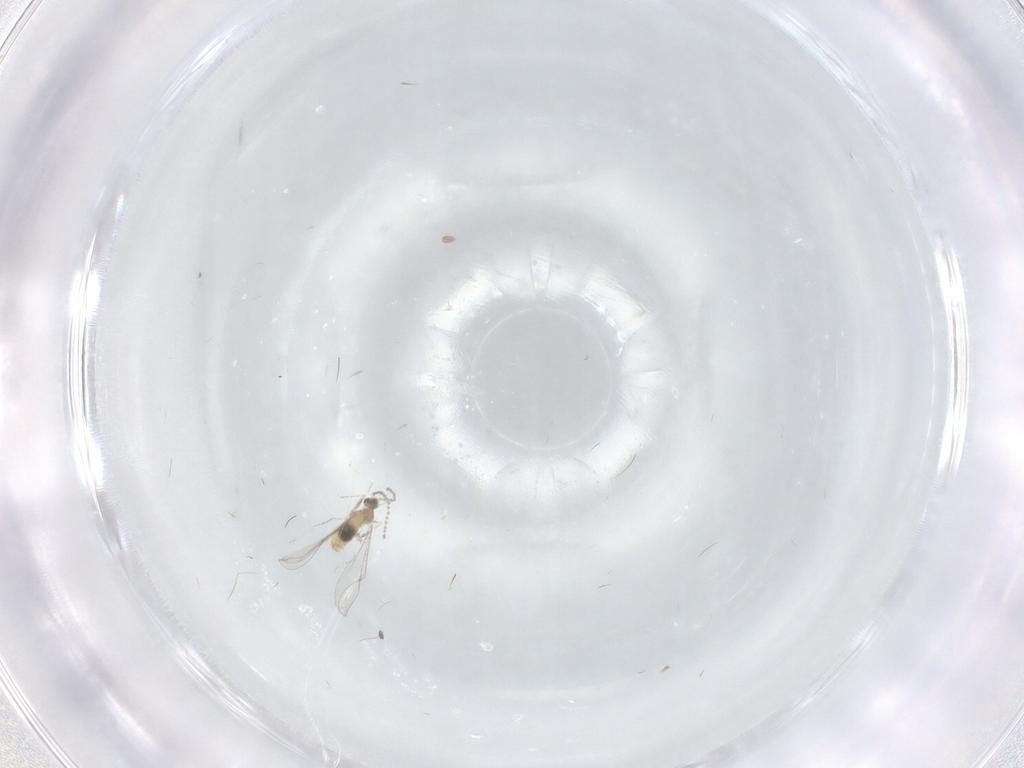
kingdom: Animalia
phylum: Arthropoda
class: Insecta
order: Diptera
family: Cecidomyiidae
